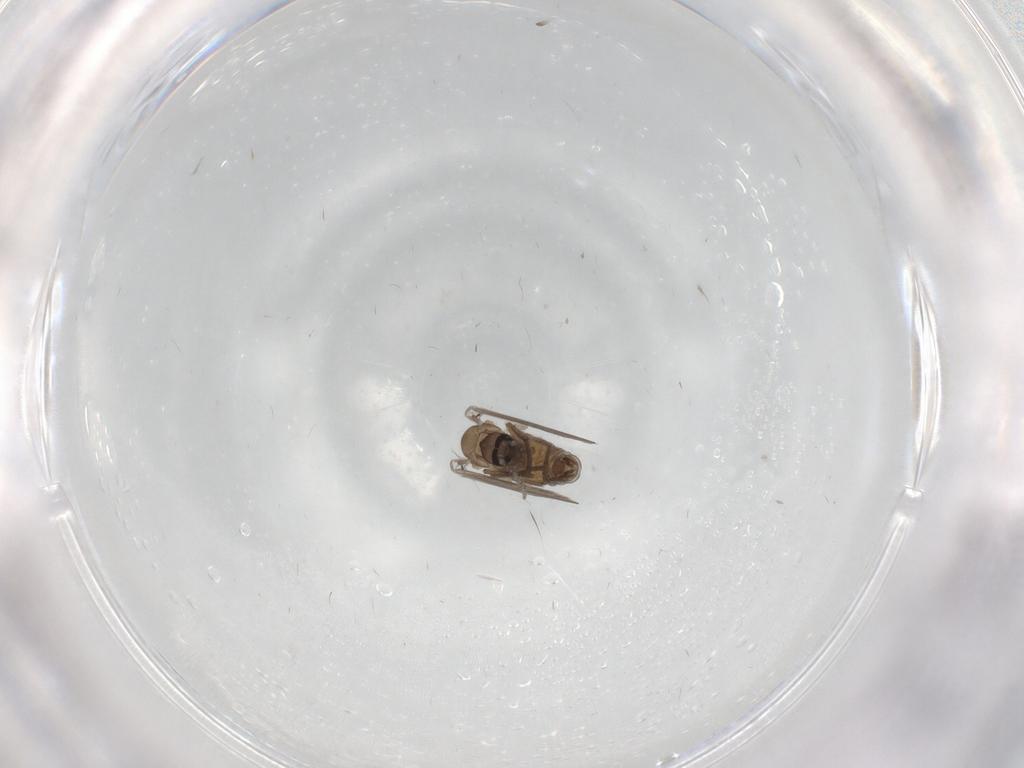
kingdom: Animalia
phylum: Arthropoda
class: Insecta
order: Diptera
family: Psychodidae
